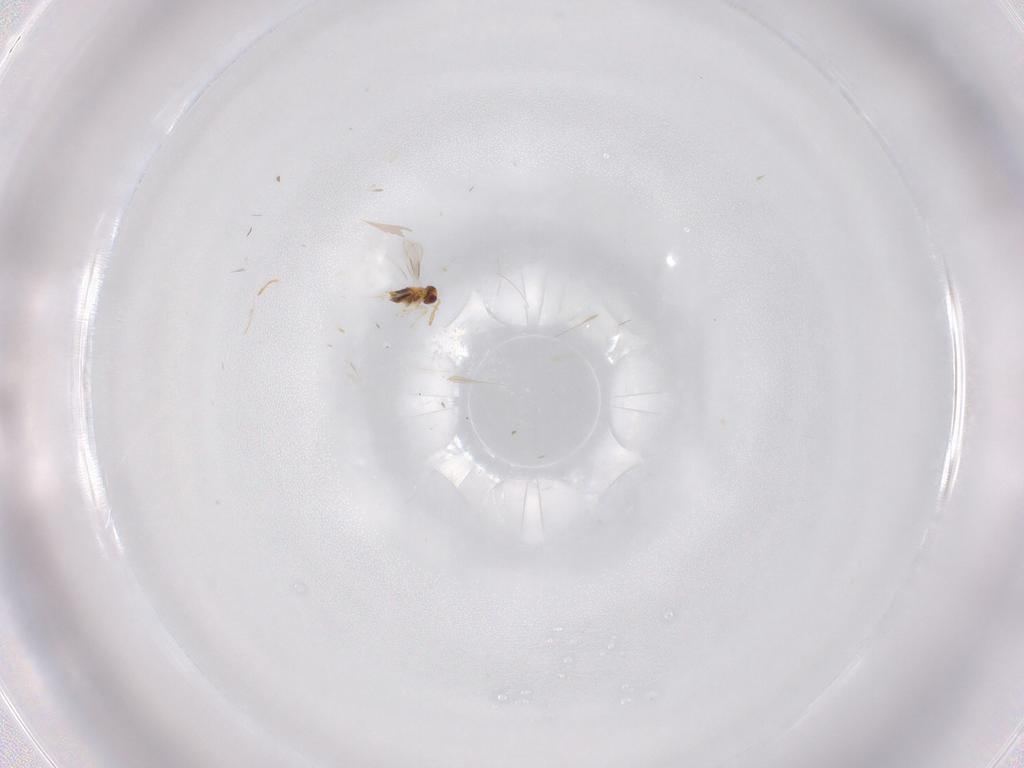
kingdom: Animalia
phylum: Arthropoda
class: Insecta
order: Hymenoptera
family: Figitidae
